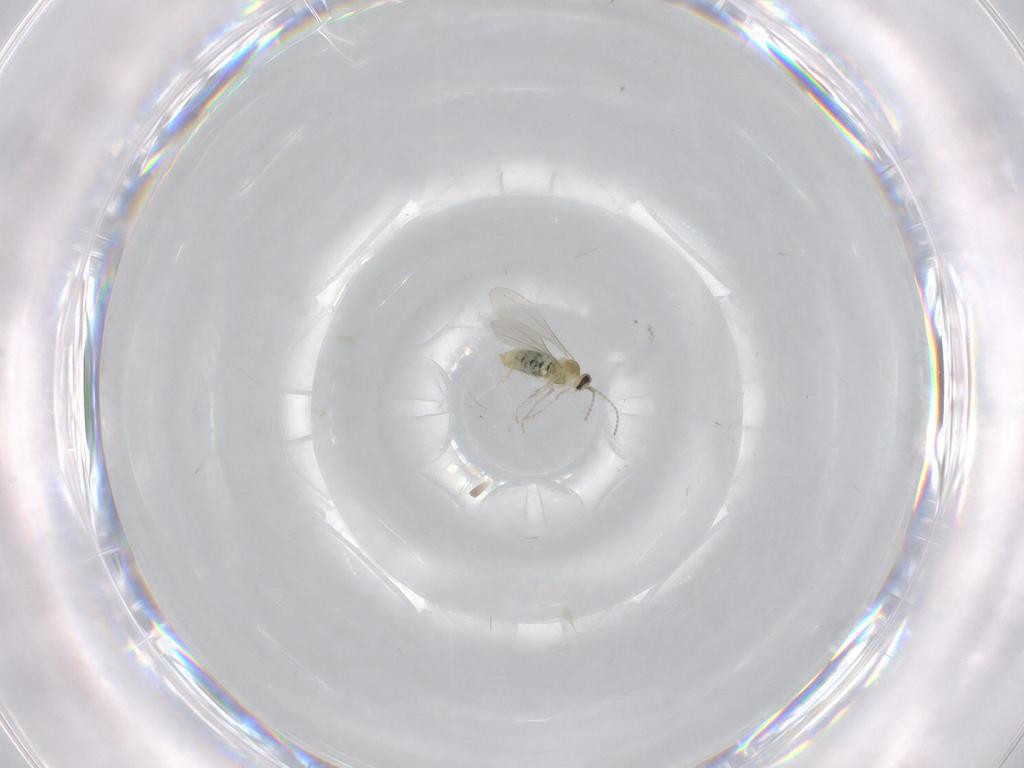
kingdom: Animalia
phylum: Arthropoda
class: Insecta
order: Diptera
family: Cecidomyiidae
